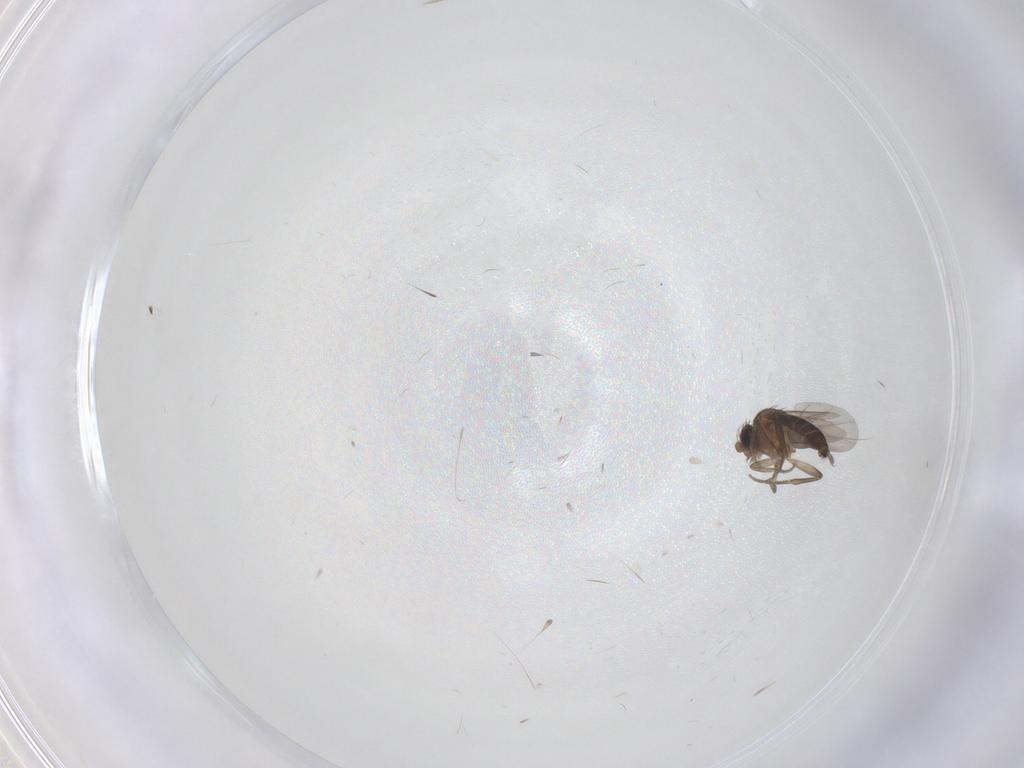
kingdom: Animalia
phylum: Arthropoda
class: Insecta
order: Diptera
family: Phoridae
